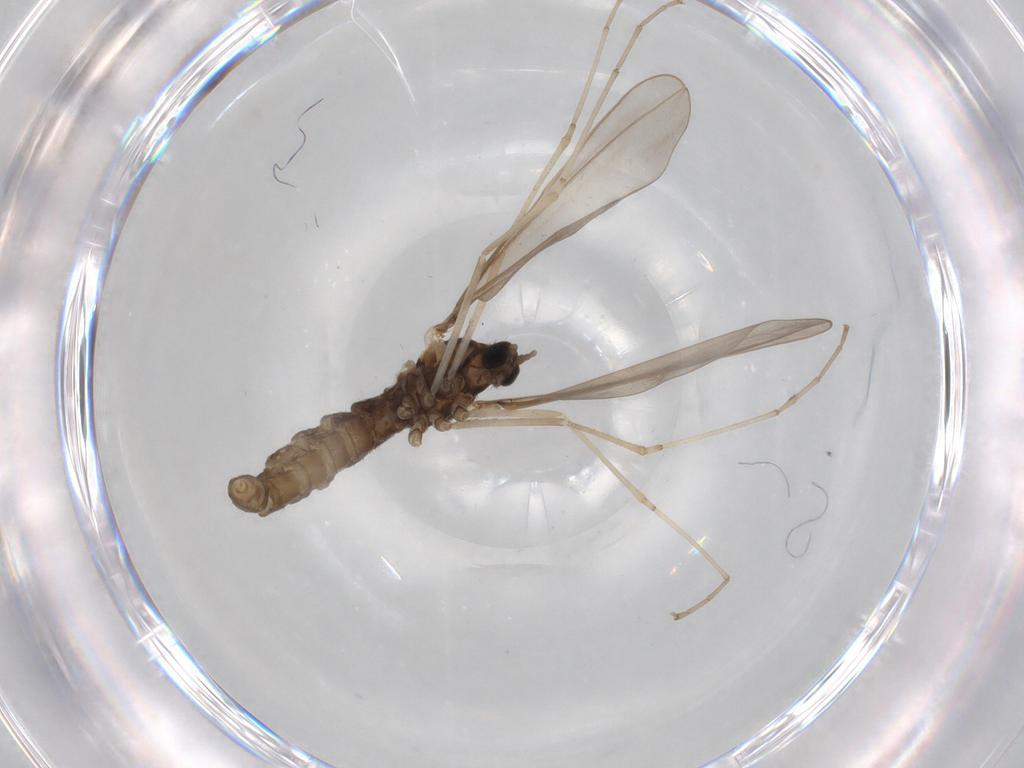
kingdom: Animalia
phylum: Arthropoda
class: Insecta
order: Diptera
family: Cecidomyiidae
